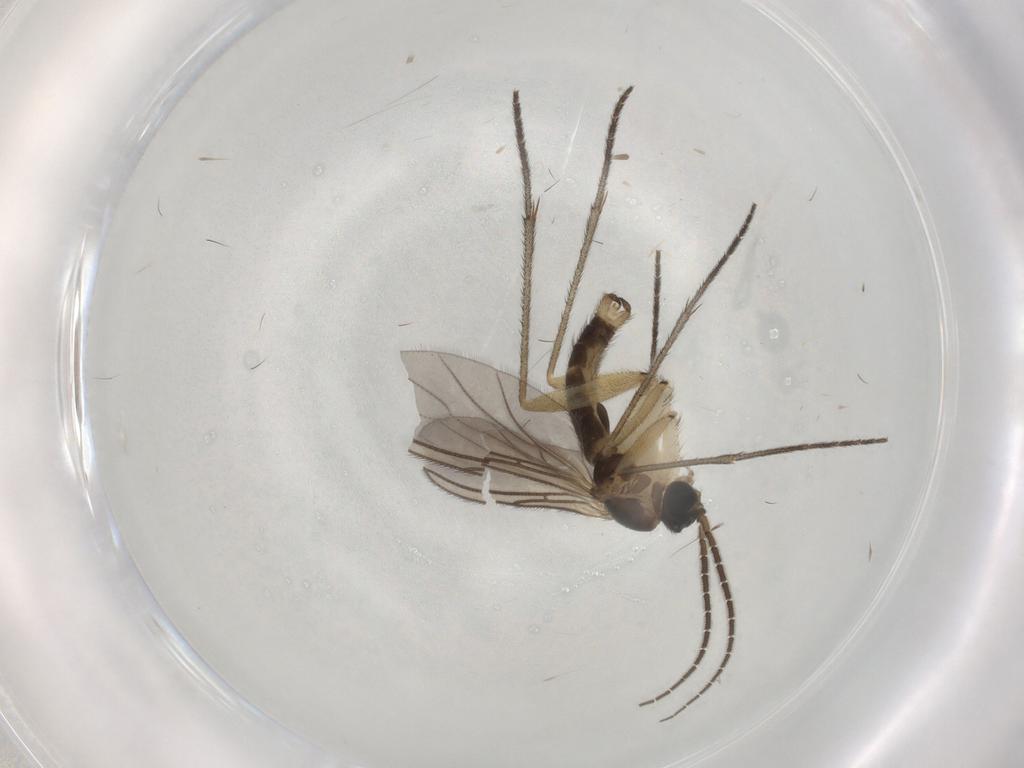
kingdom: Animalia
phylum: Arthropoda
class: Insecta
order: Diptera
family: Sciaridae
